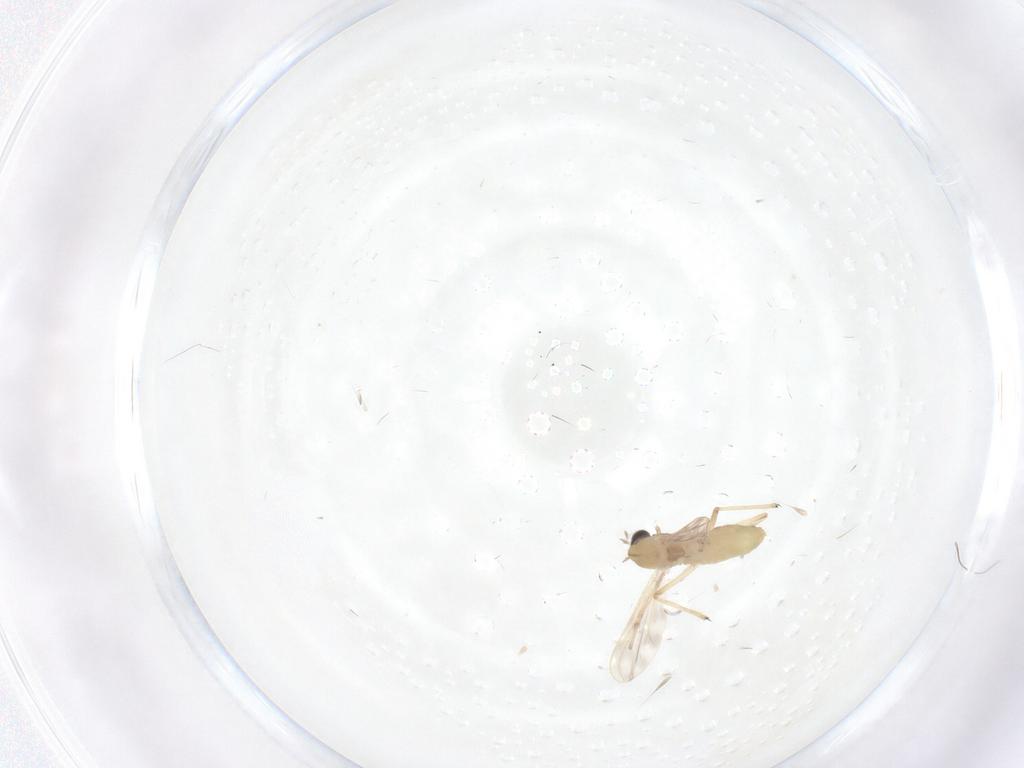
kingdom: Animalia
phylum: Arthropoda
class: Insecta
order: Diptera
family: Chironomidae
